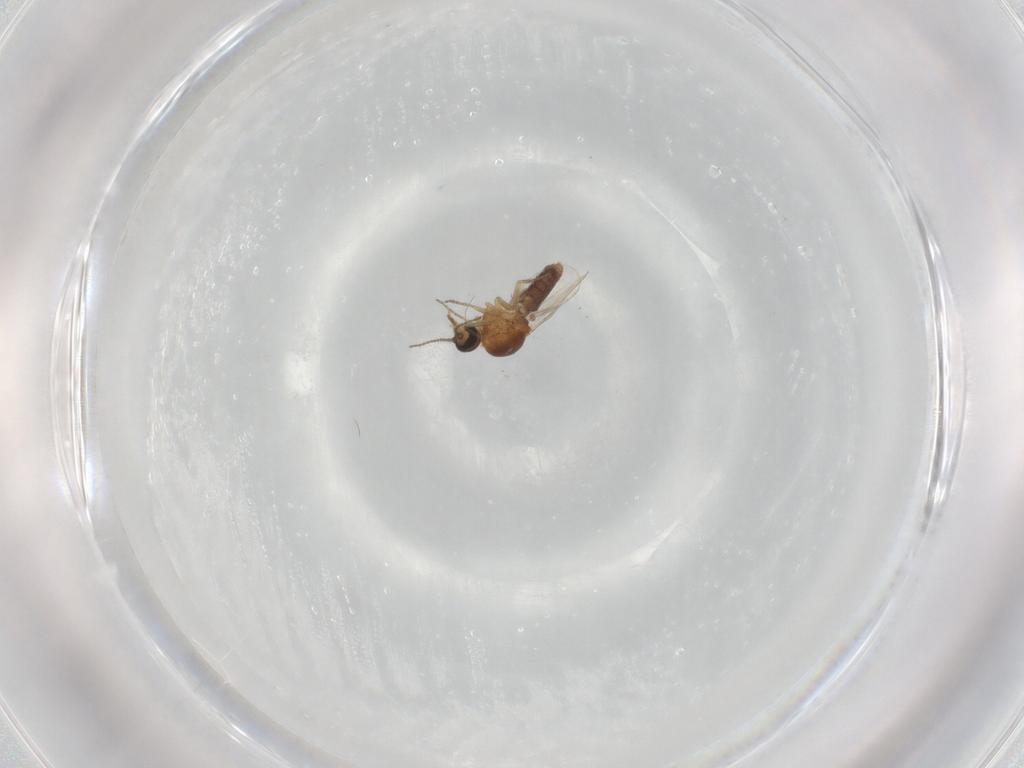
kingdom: Animalia
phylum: Arthropoda
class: Insecta
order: Diptera
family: Ceratopogonidae
